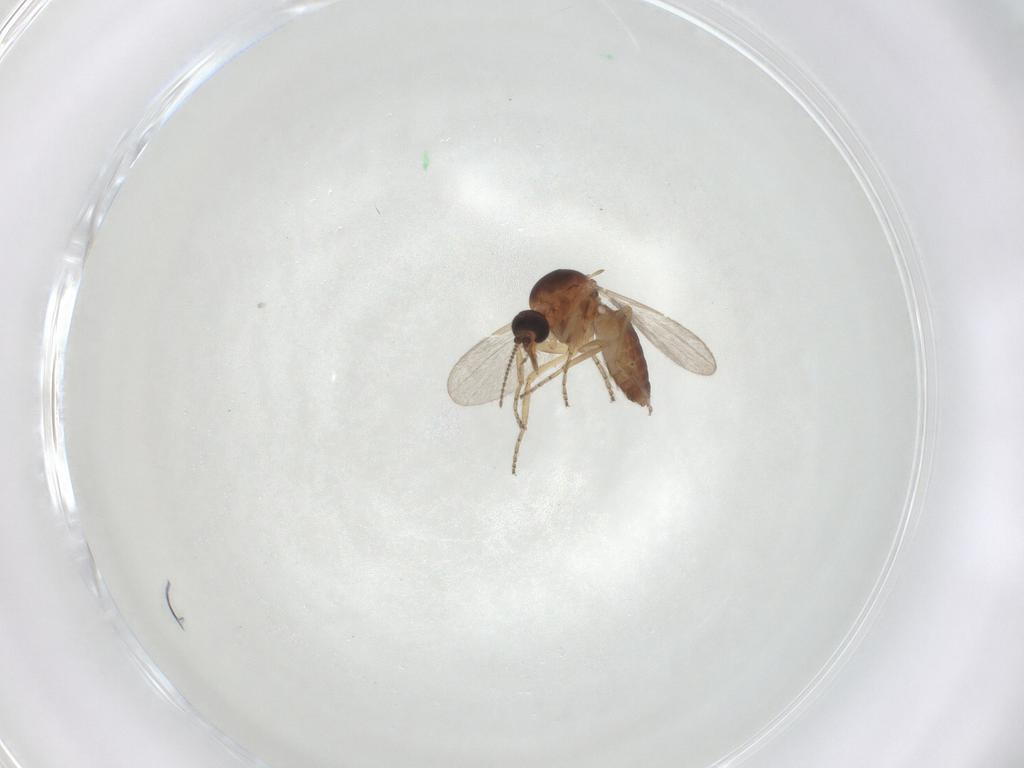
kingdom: Animalia
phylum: Arthropoda
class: Insecta
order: Diptera
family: Ceratopogonidae
